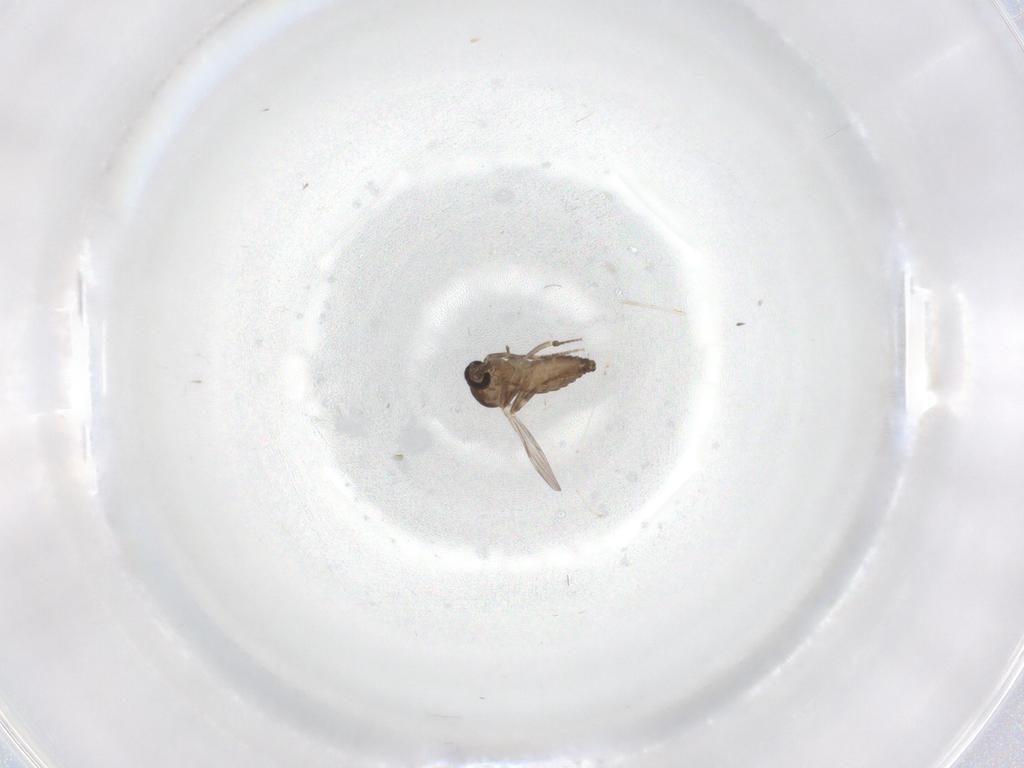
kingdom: Animalia
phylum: Arthropoda
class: Insecta
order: Diptera
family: Ceratopogonidae
